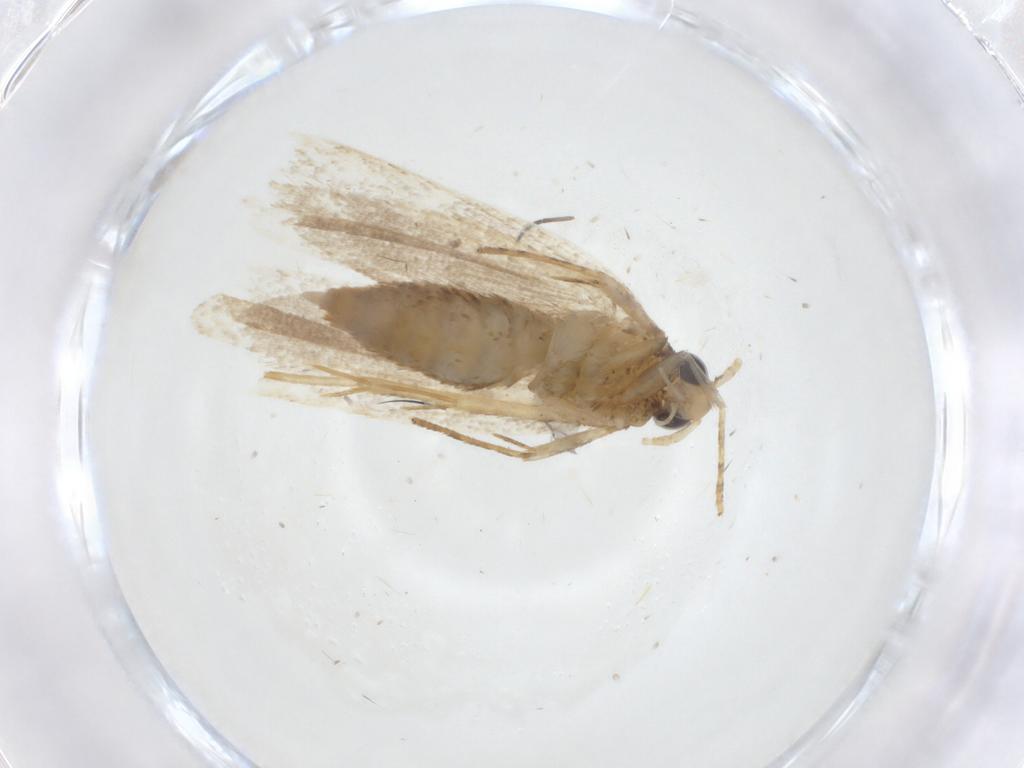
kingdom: Animalia
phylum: Arthropoda
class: Insecta
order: Lepidoptera
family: Lecithoceridae
